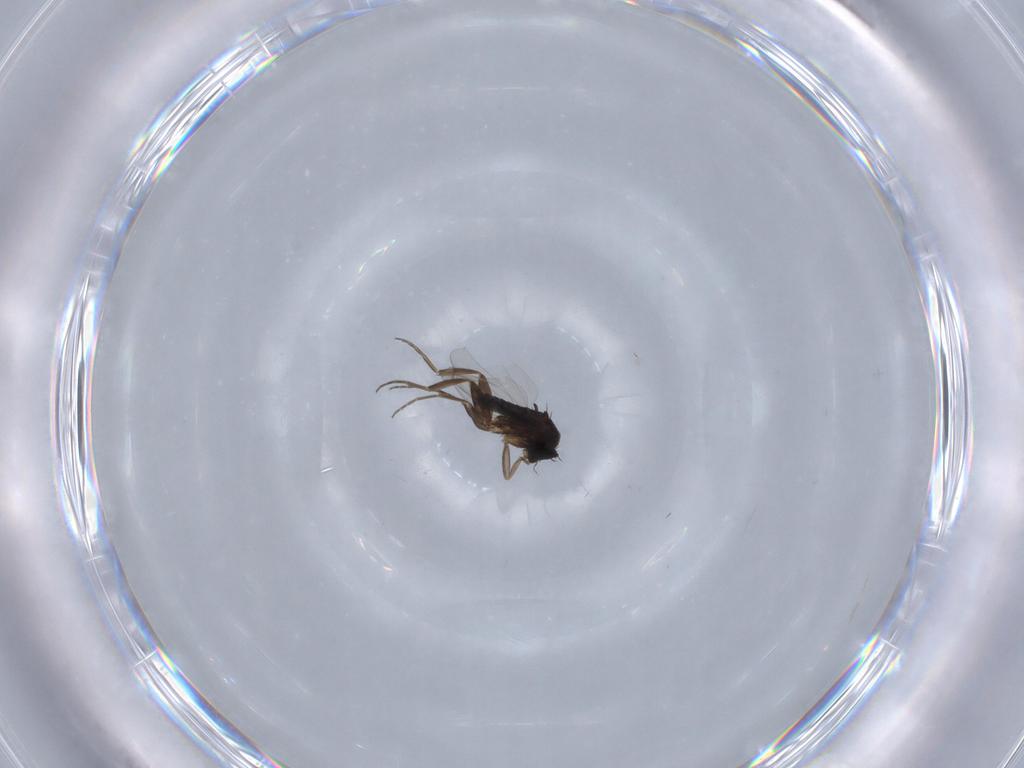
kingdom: Animalia
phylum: Arthropoda
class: Insecta
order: Diptera
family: Phoridae
